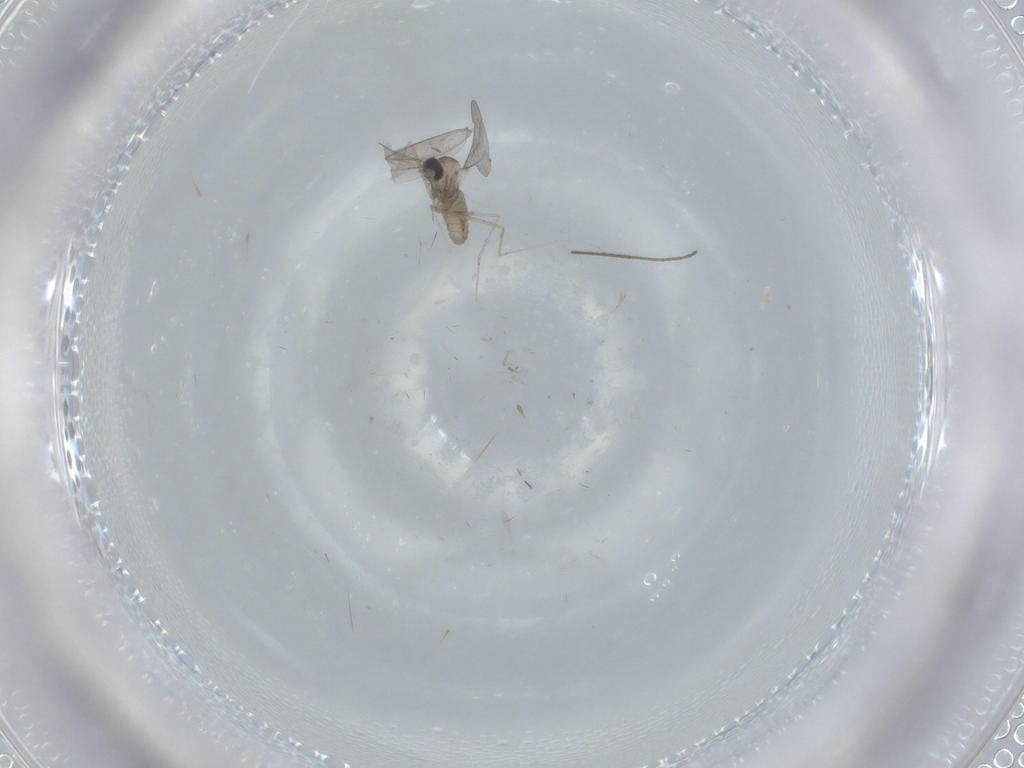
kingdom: Animalia
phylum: Arthropoda
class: Insecta
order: Diptera
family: Cecidomyiidae
